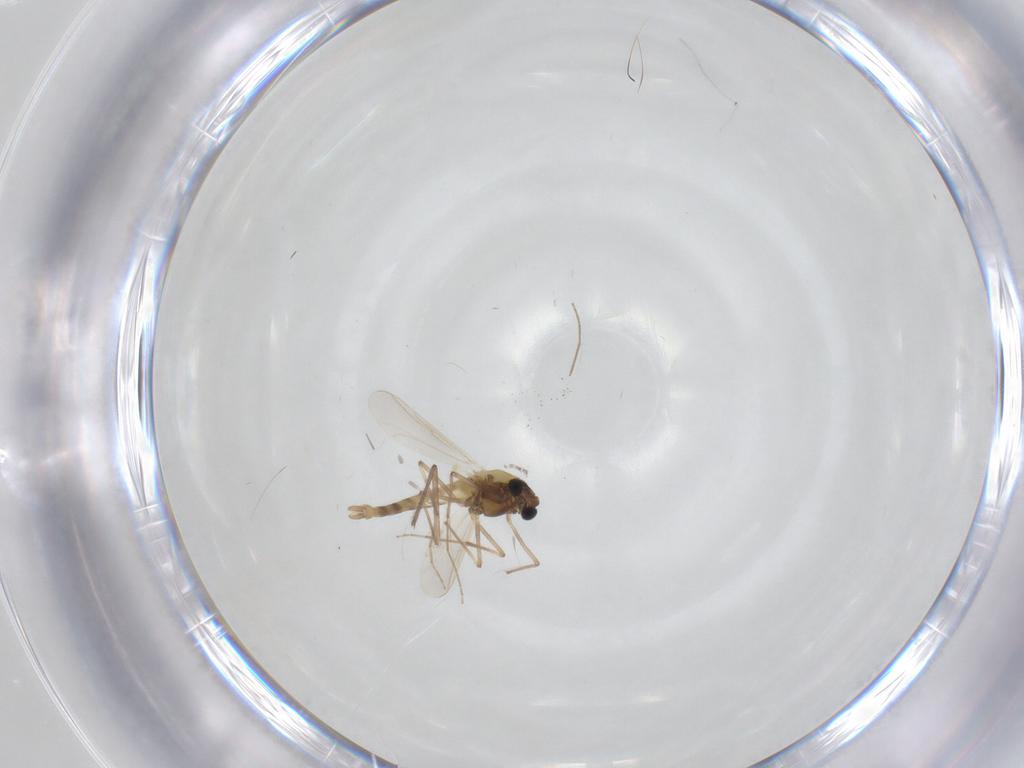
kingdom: Animalia
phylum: Arthropoda
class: Insecta
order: Diptera
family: Chironomidae
